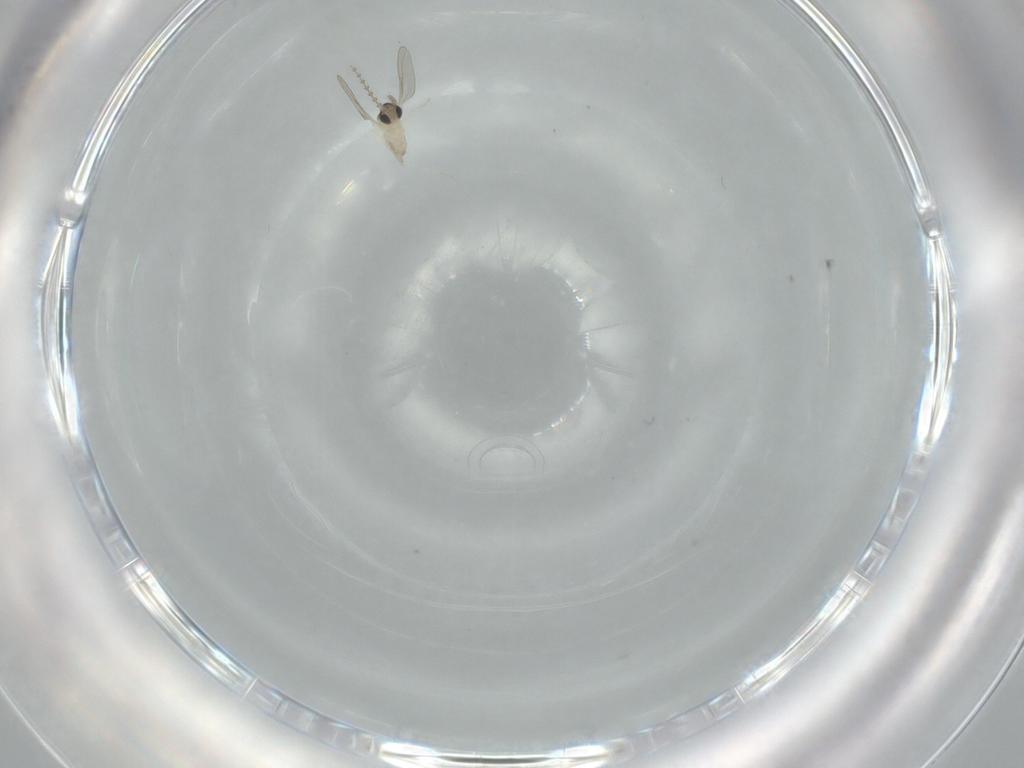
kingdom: Animalia
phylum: Arthropoda
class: Insecta
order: Diptera
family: Cecidomyiidae
